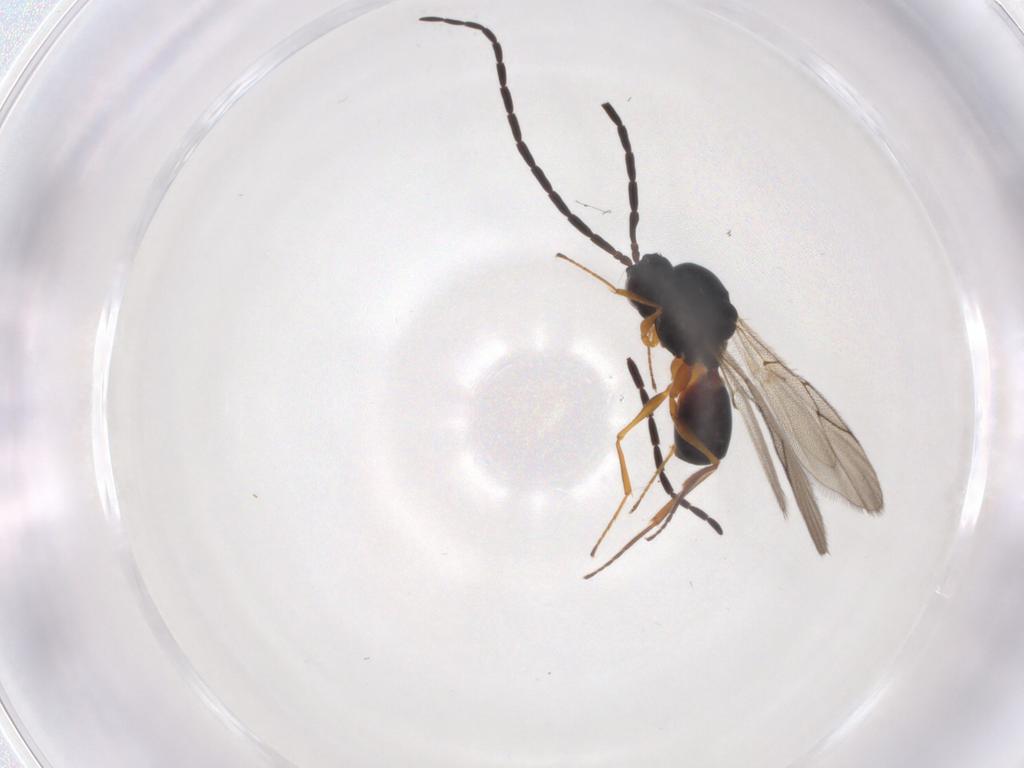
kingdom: Animalia
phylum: Arthropoda
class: Insecta
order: Hymenoptera
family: Figitidae
